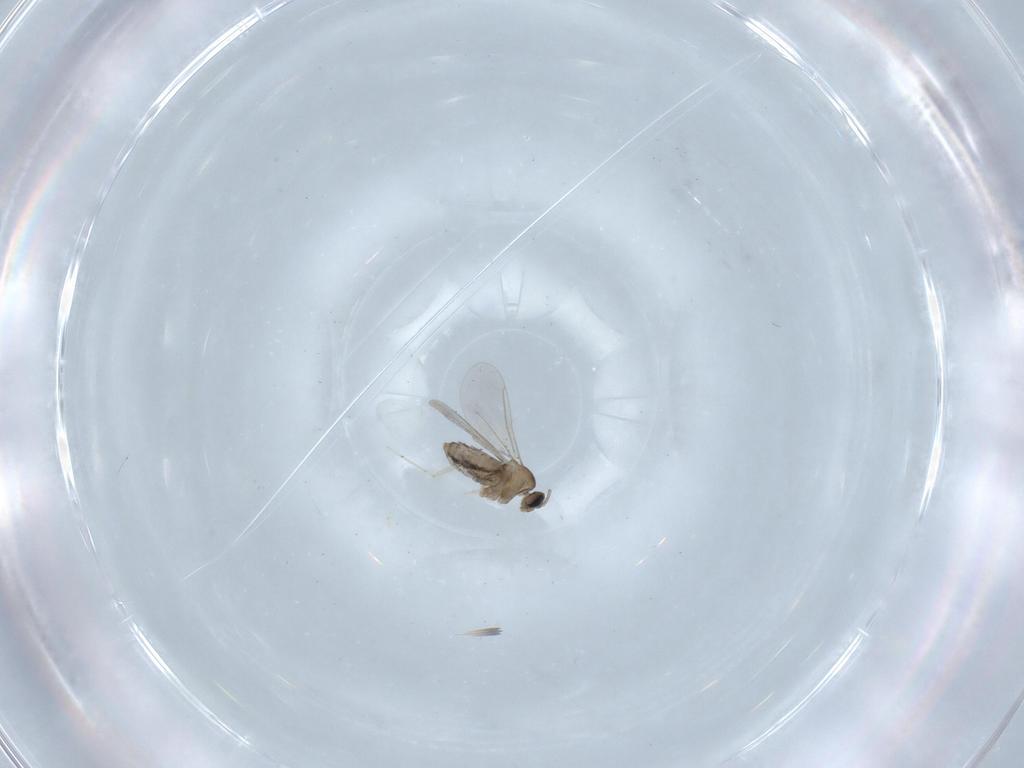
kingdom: Animalia
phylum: Arthropoda
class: Insecta
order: Diptera
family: Cecidomyiidae
